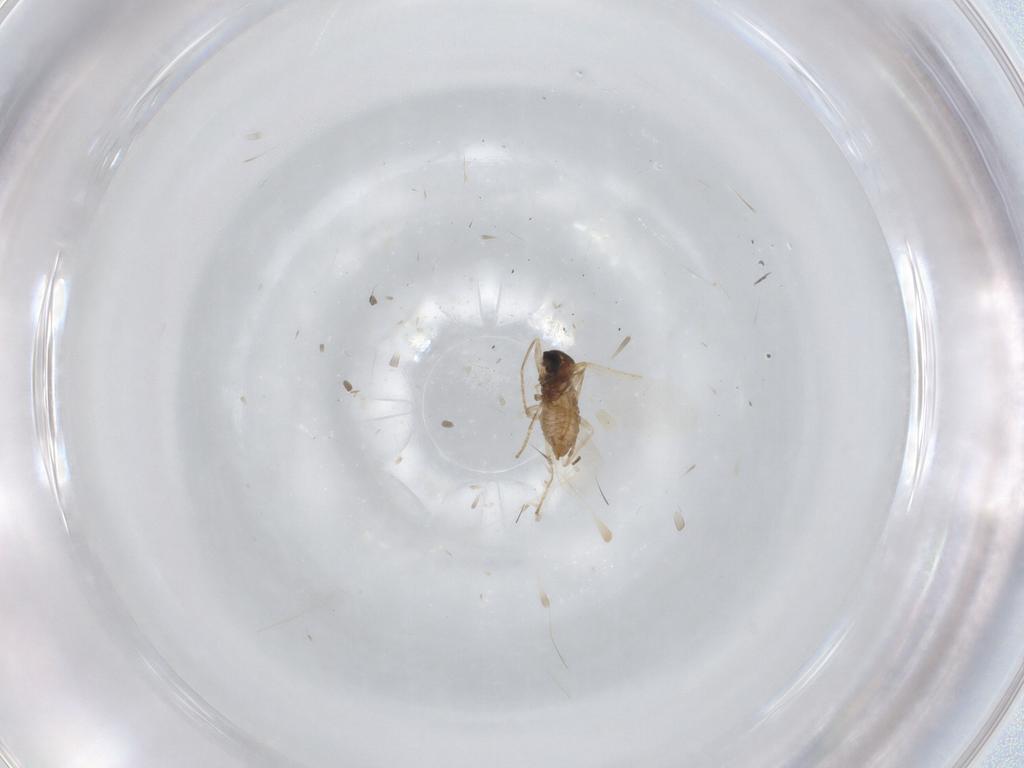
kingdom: Animalia
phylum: Arthropoda
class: Insecta
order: Diptera
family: Cecidomyiidae
